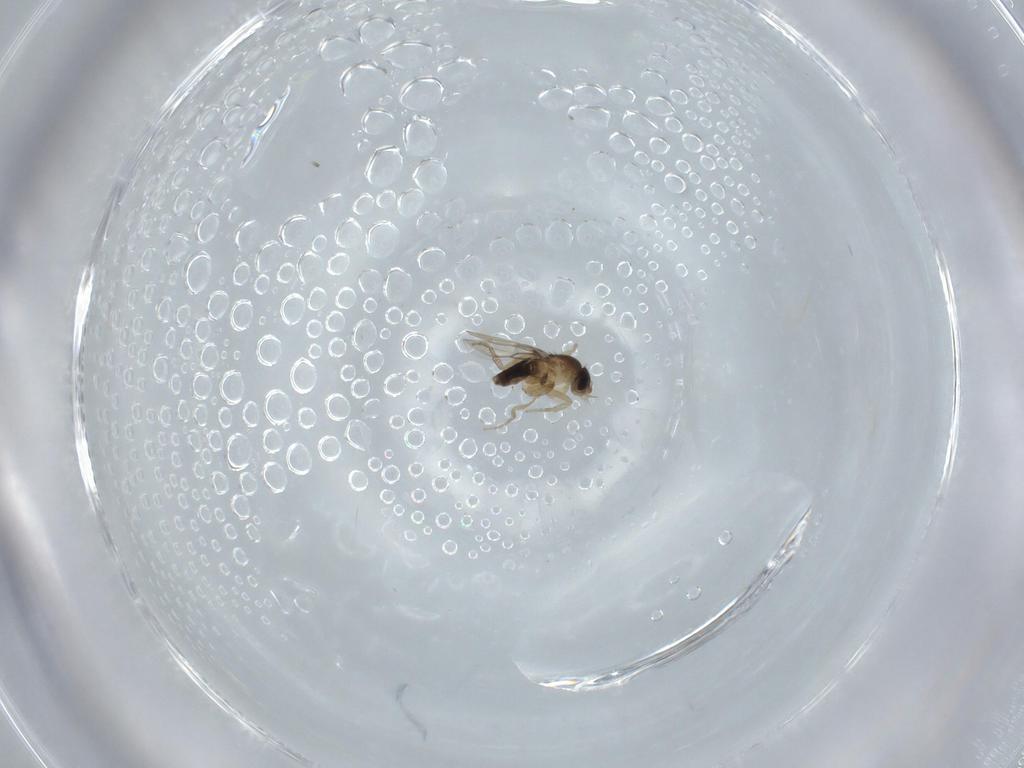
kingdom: Animalia
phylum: Arthropoda
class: Insecta
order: Diptera
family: Phoridae
